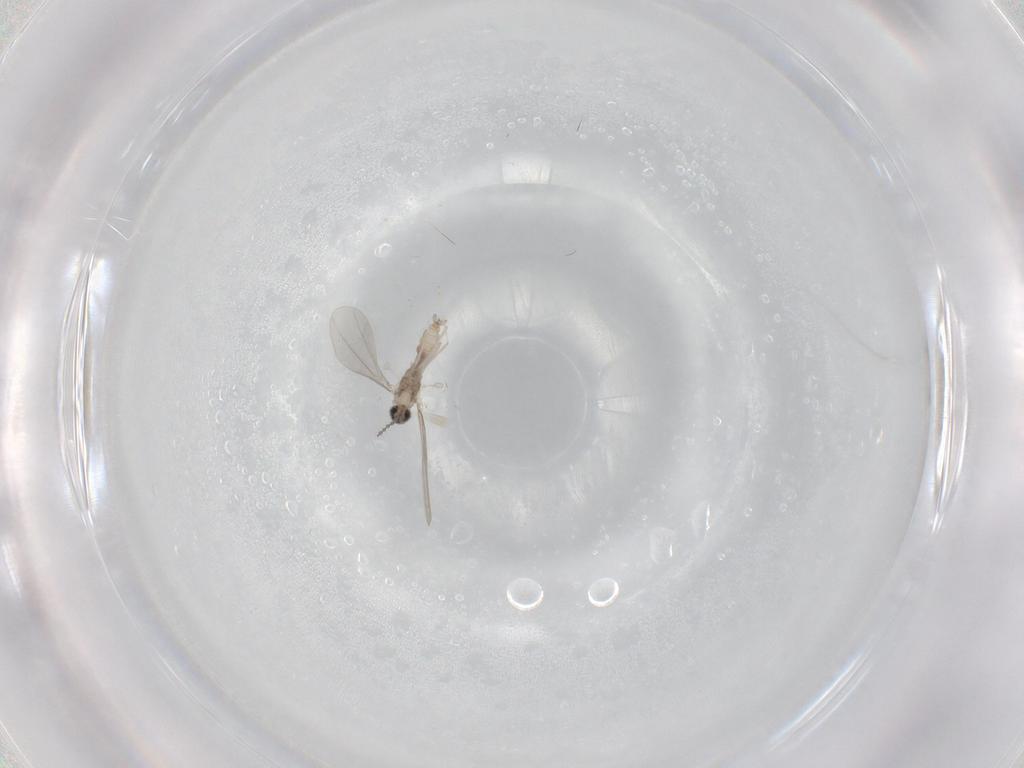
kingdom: Animalia
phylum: Arthropoda
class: Insecta
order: Diptera
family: Cecidomyiidae
